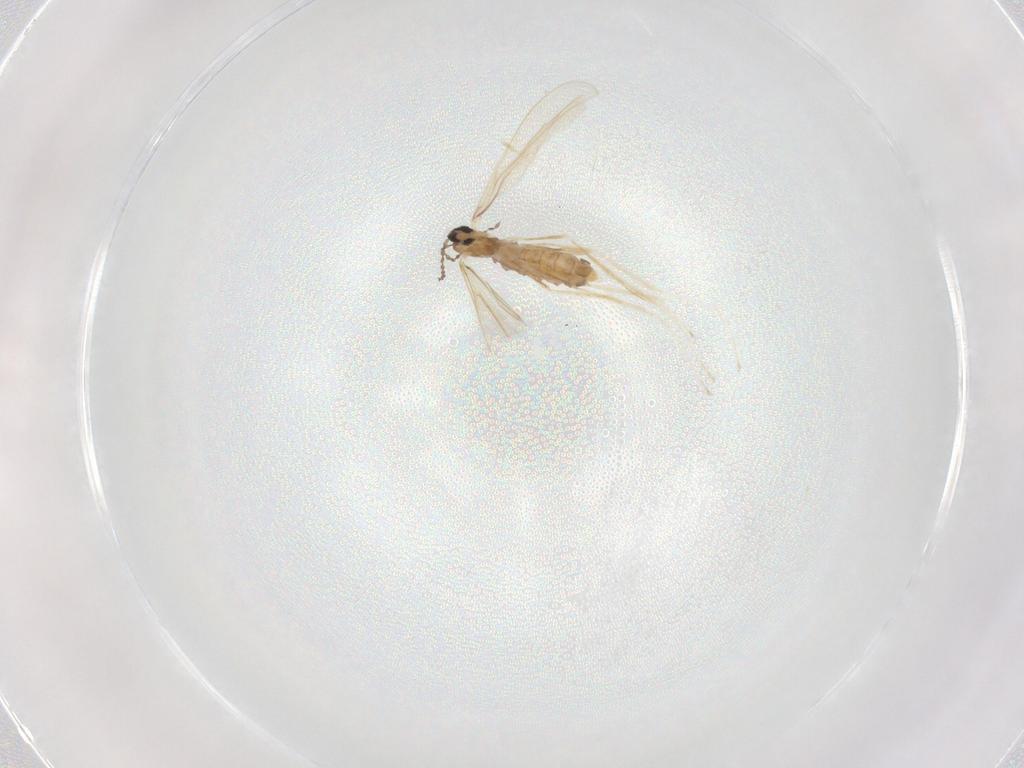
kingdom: Animalia
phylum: Arthropoda
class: Insecta
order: Diptera
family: Cecidomyiidae
